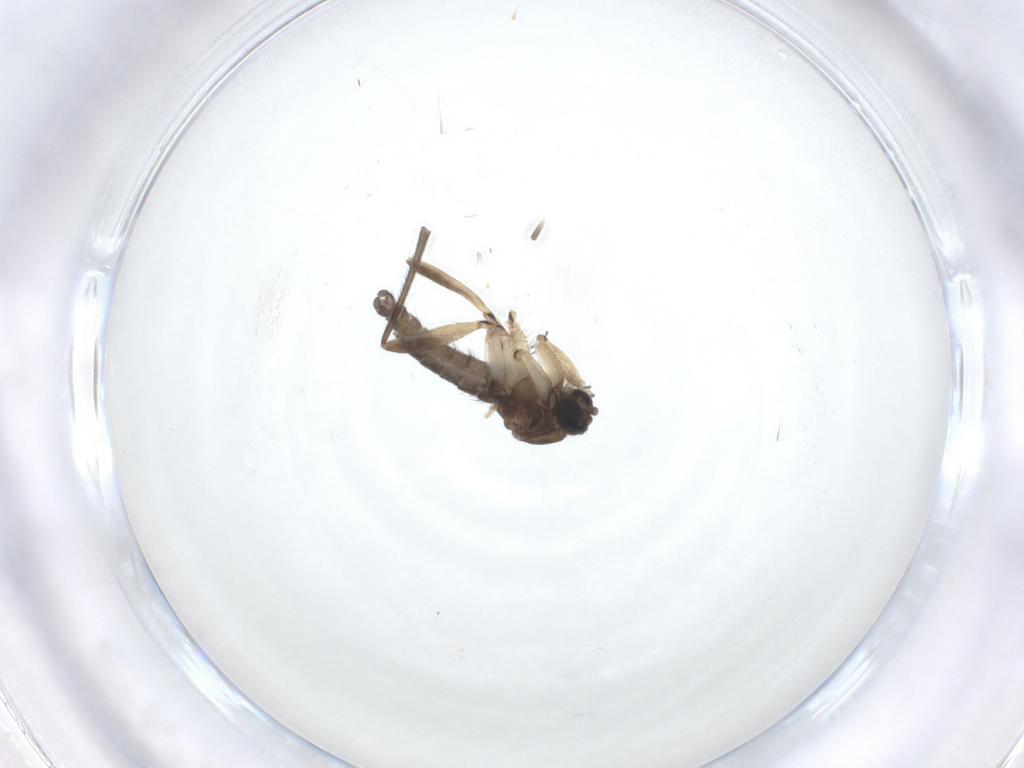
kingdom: Animalia
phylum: Arthropoda
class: Insecta
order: Diptera
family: Sciaridae
